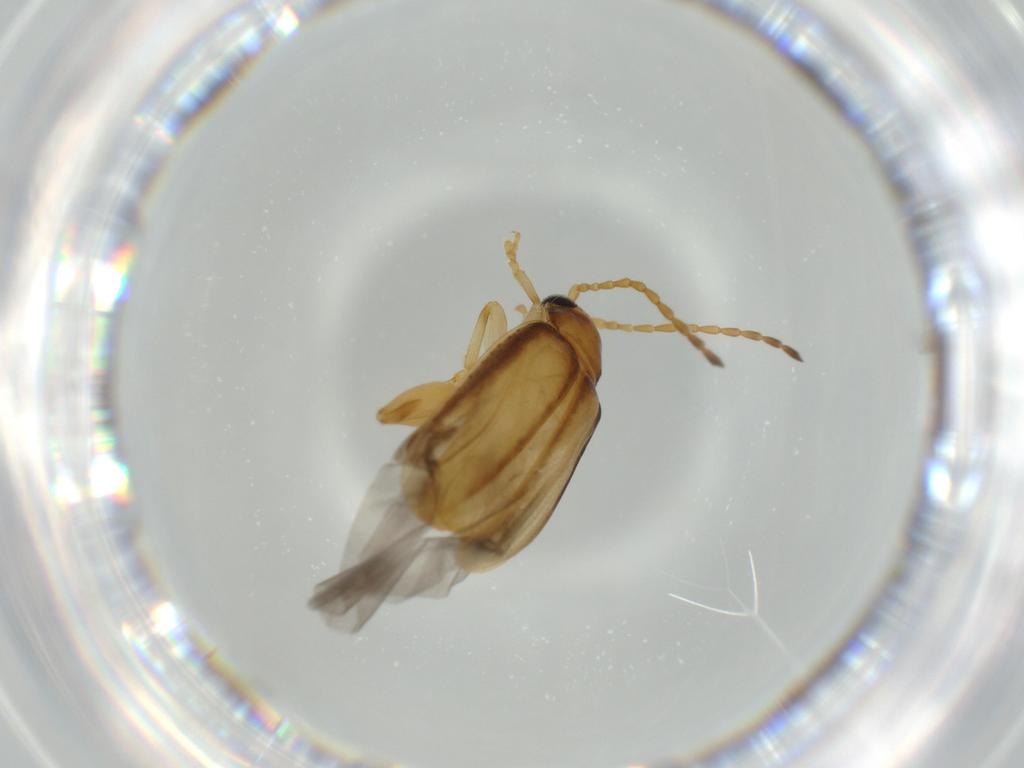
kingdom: Animalia
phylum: Arthropoda
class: Insecta
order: Coleoptera
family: Chrysomelidae
